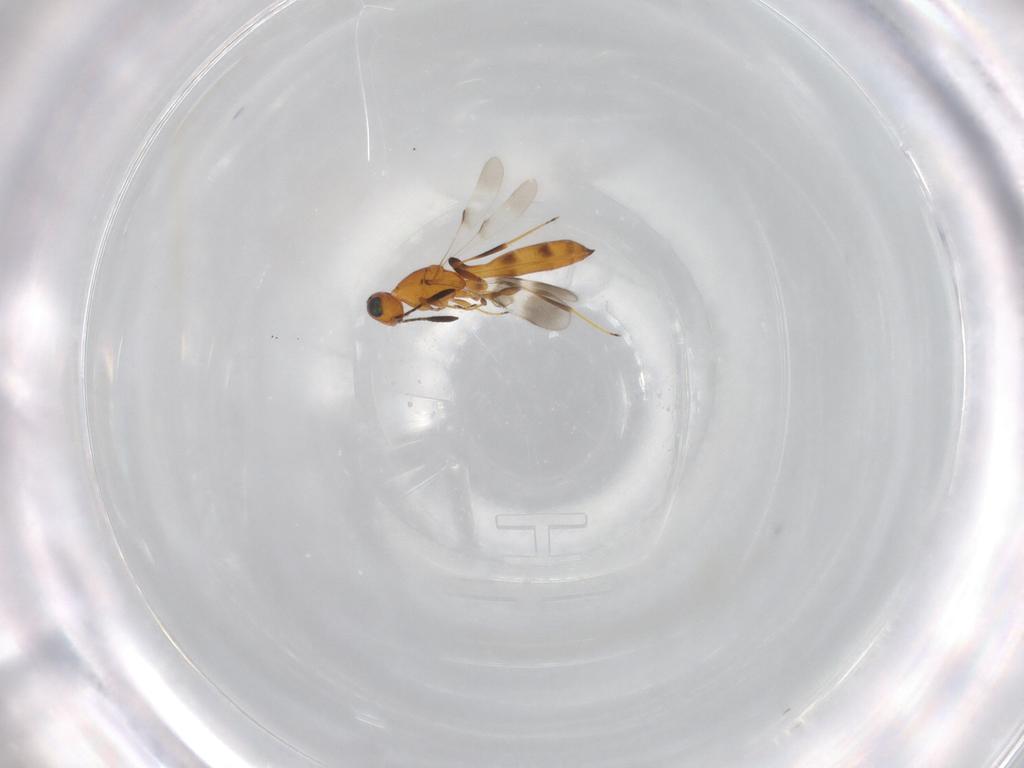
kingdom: Animalia
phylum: Arthropoda
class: Insecta
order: Hymenoptera
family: Scelionidae
